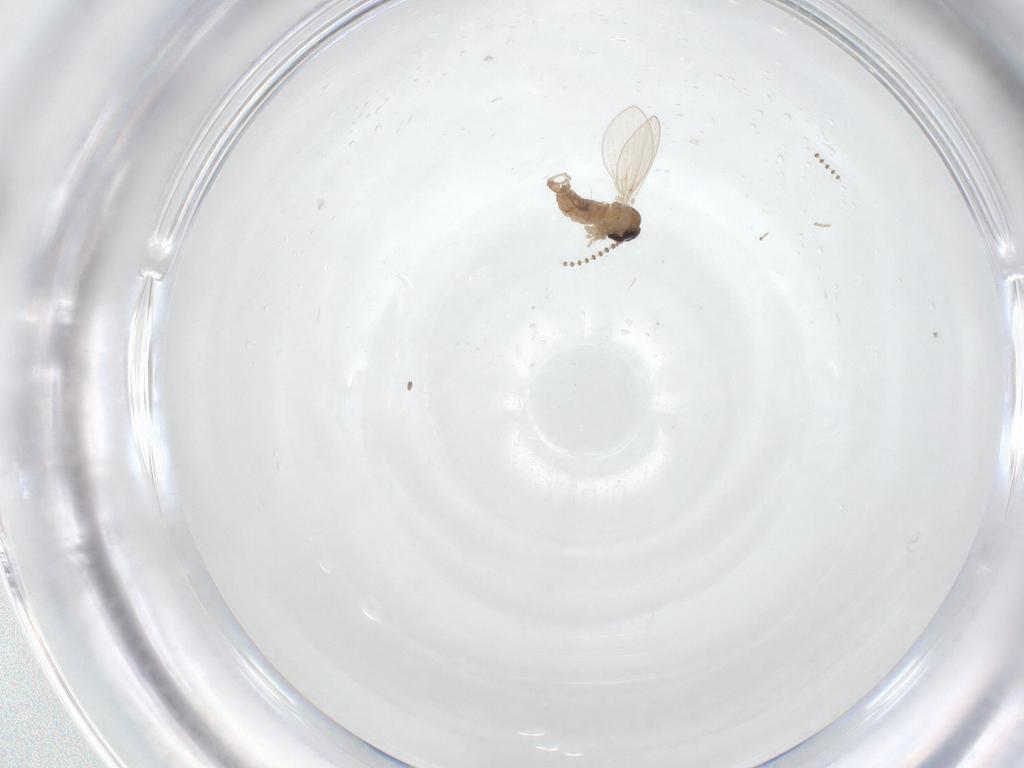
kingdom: Animalia
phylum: Arthropoda
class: Insecta
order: Diptera
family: Psychodidae
